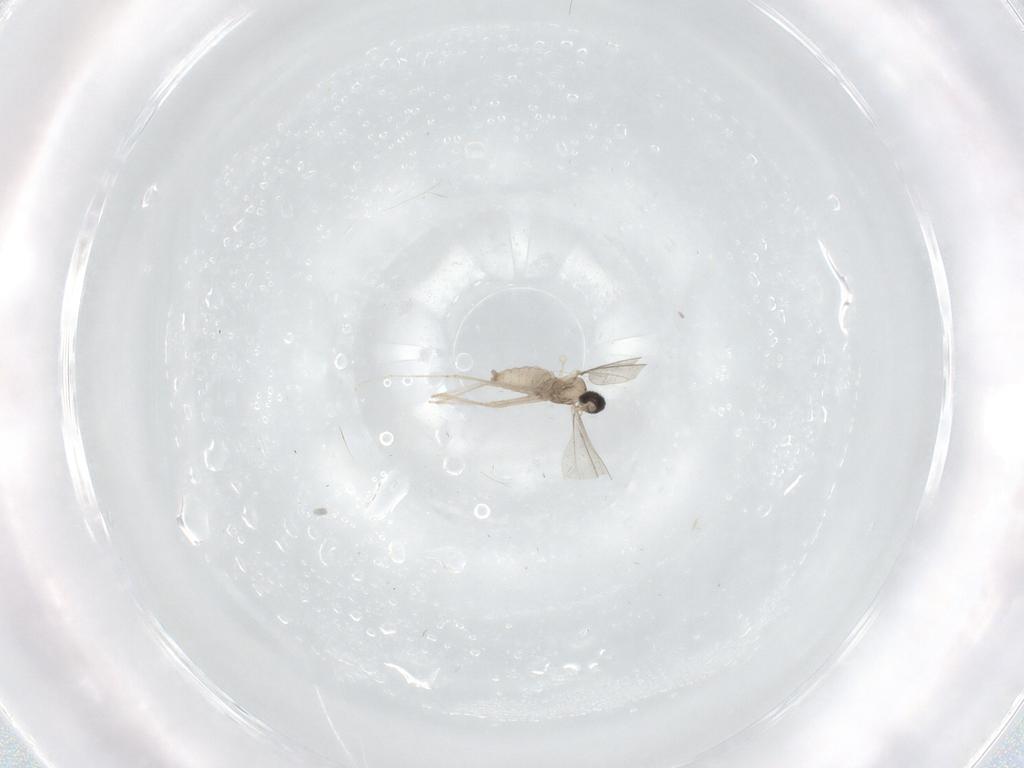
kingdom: Animalia
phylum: Arthropoda
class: Insecta
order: Diptera
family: Cecidomyiidae
